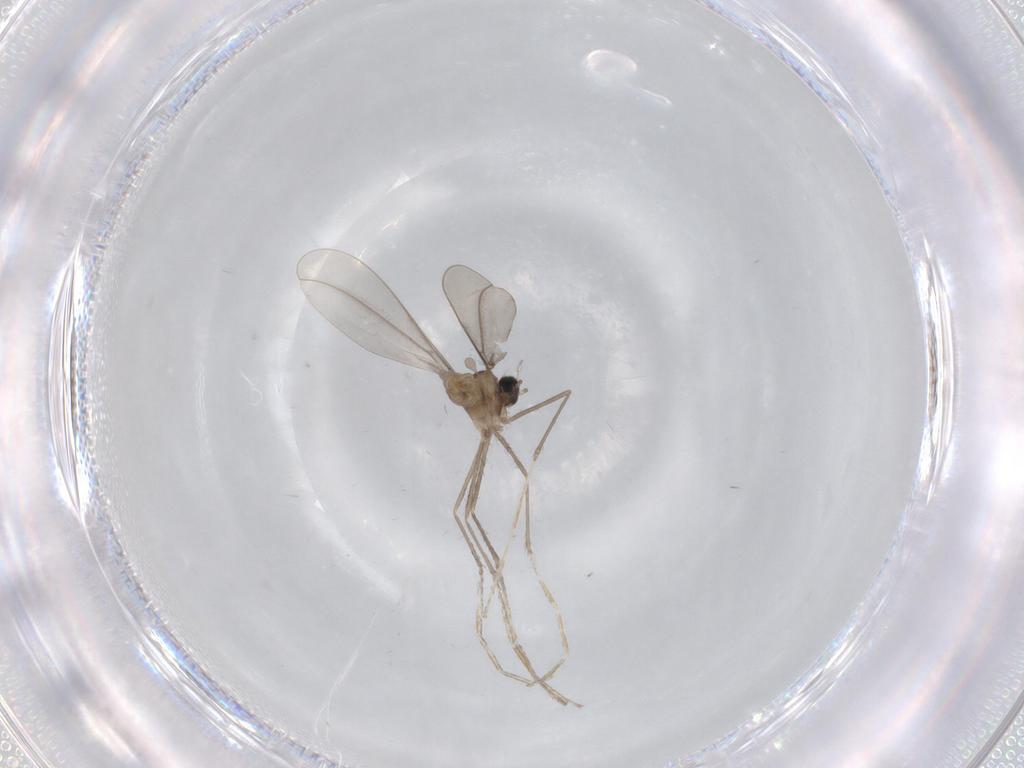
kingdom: Animalia
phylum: Arthropoda
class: Insecta
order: Diptera
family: Cecidomyiidae
